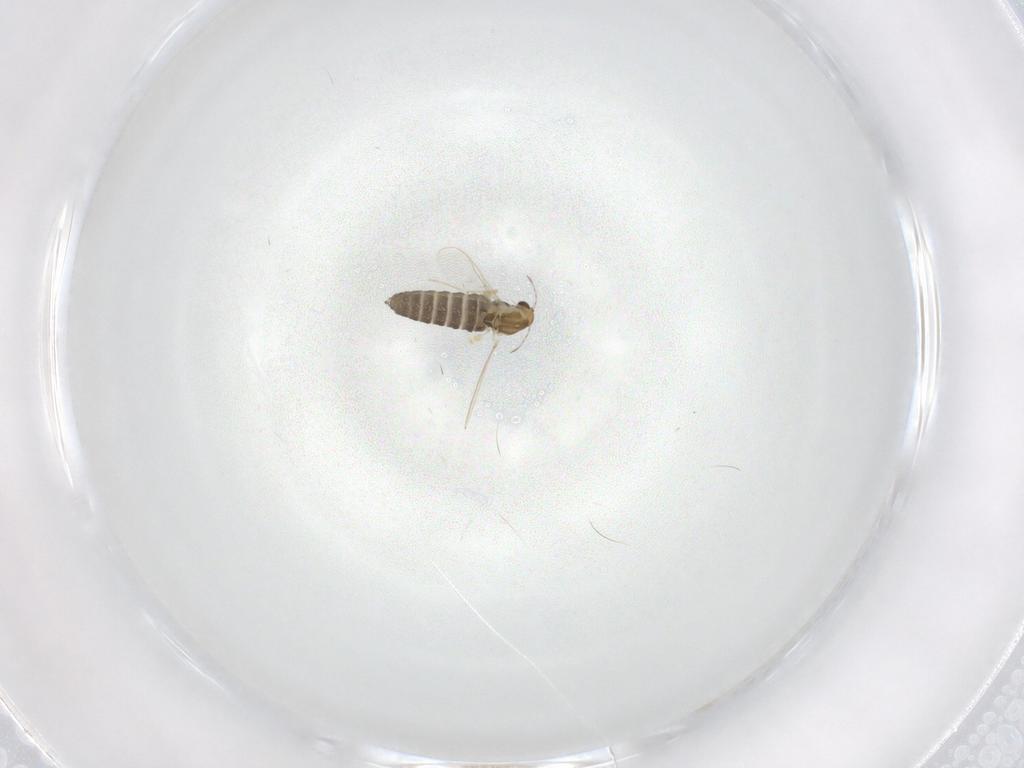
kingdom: Animalia
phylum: Arthropoda
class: Insecta
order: Diptera
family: Chironomidae
